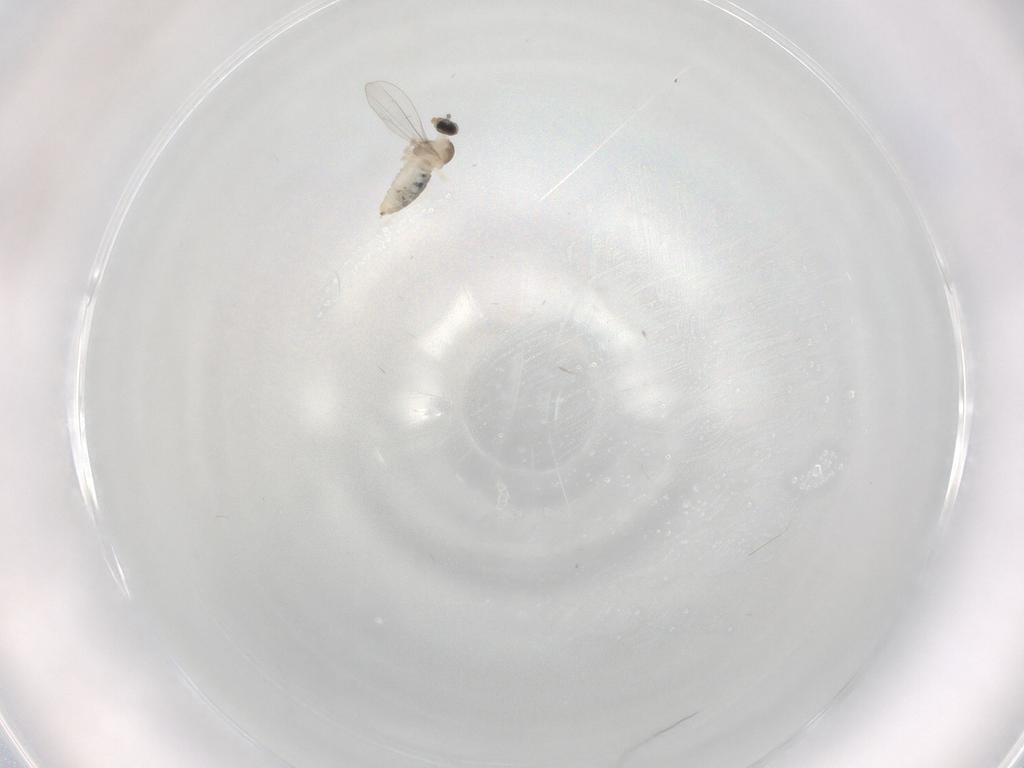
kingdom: Animalia
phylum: Arthropoda
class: Insecta
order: Diptera
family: Cecidomyiidae
